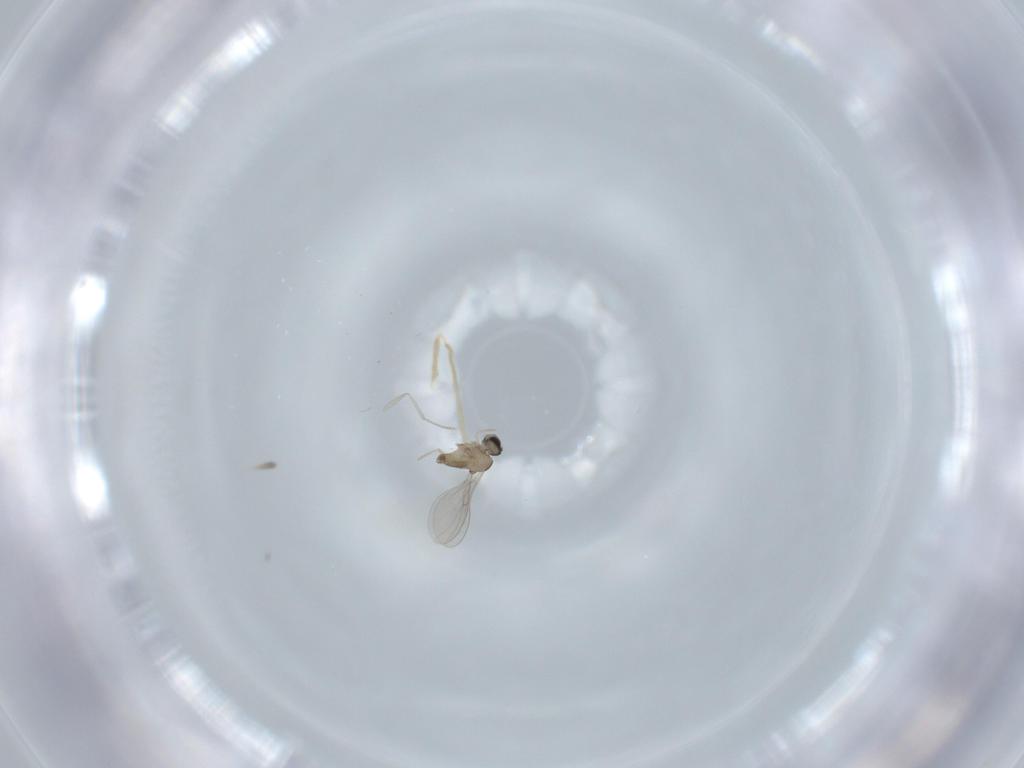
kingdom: Animalia
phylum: Arthropoda
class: Insecta
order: Diptera
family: Cecidomyiidae
